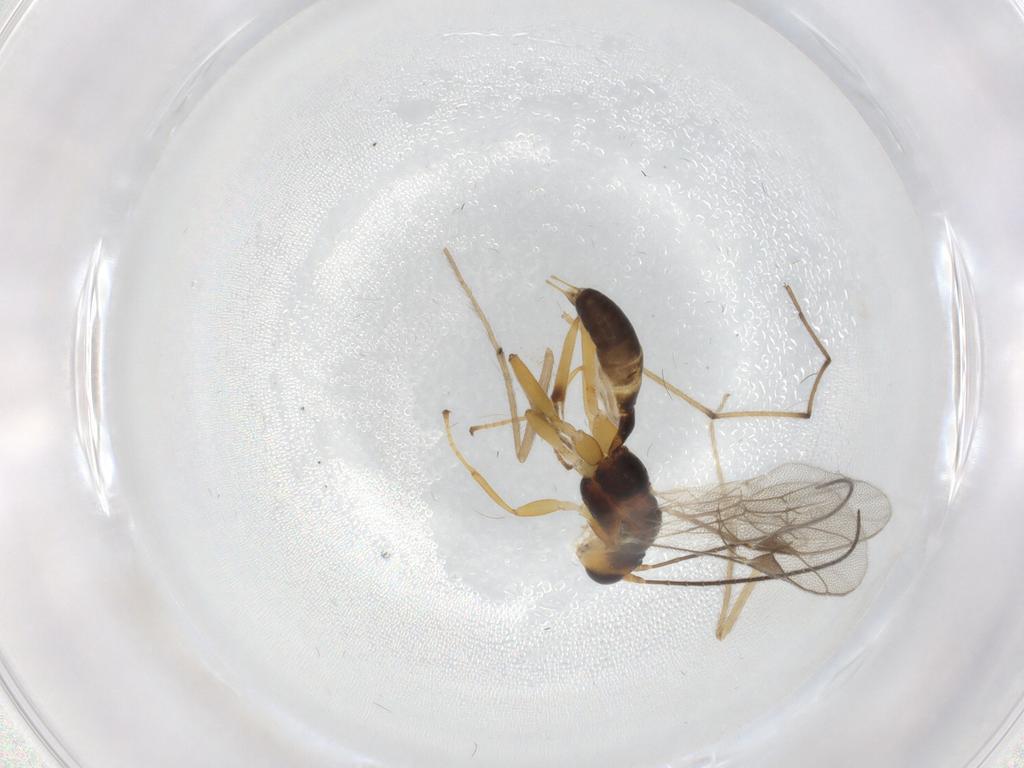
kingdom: Animalia
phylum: Arthropoda
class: Insecta
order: Hymenoptera
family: Ichneumonidae
